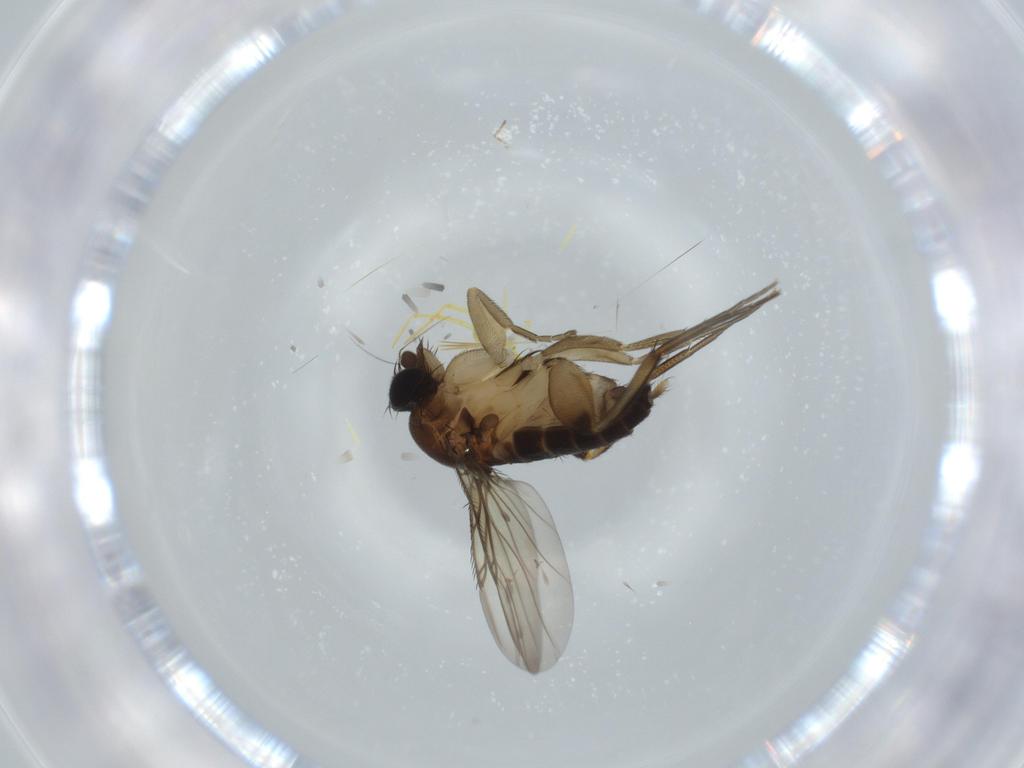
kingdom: Animalia
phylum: Arthropoda
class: Insecta
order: Diptera
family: Phoridae
